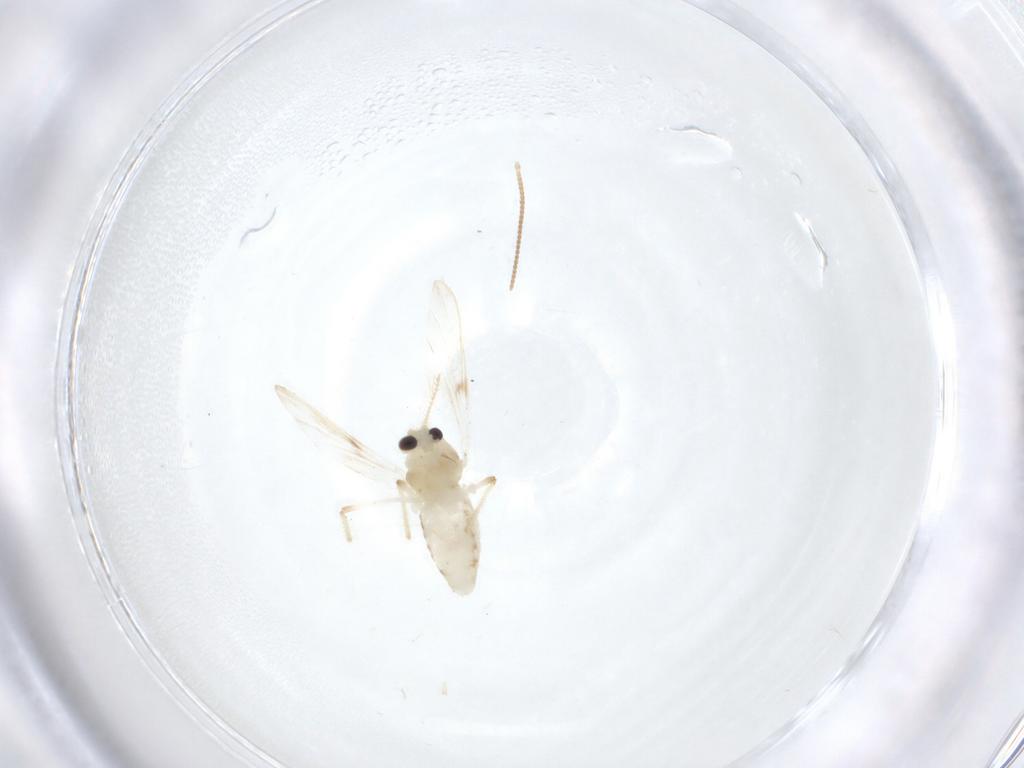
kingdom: Animalia
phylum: Arthropoda
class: Insecta
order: Diptera
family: Chironomidae
